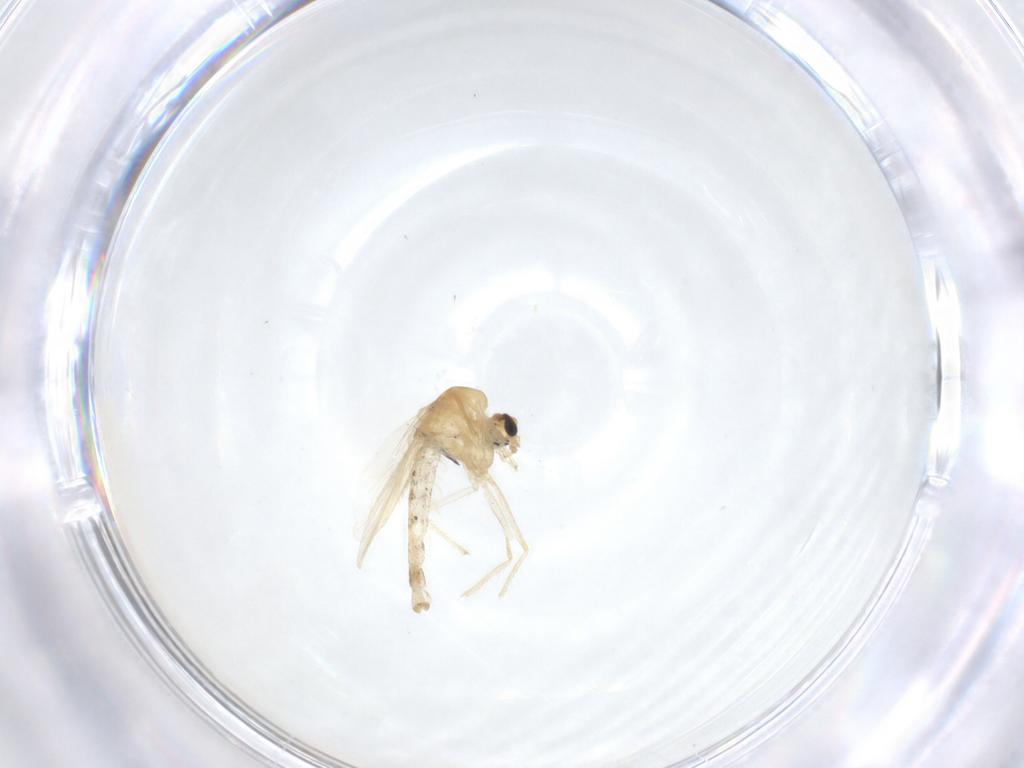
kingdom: Animalia
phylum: Arthropoda
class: Insecta
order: Diptera
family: Chironomidae
